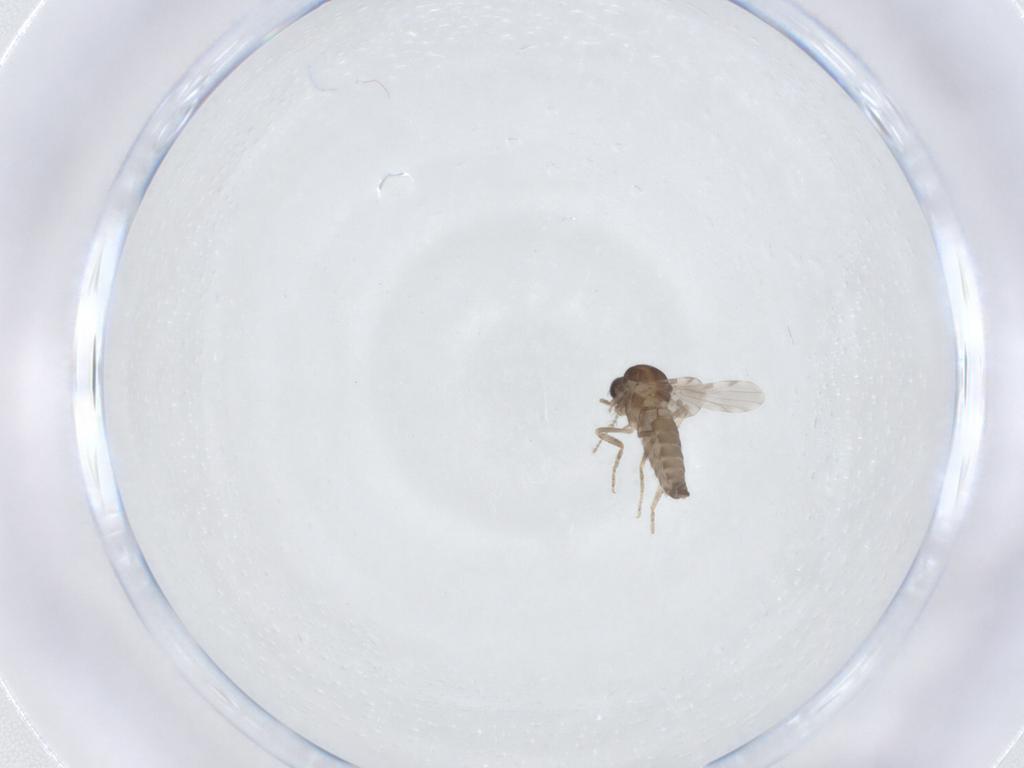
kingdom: Animalia
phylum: Arthropoda
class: Insecta
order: Diptera
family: Ceratopogonidae
